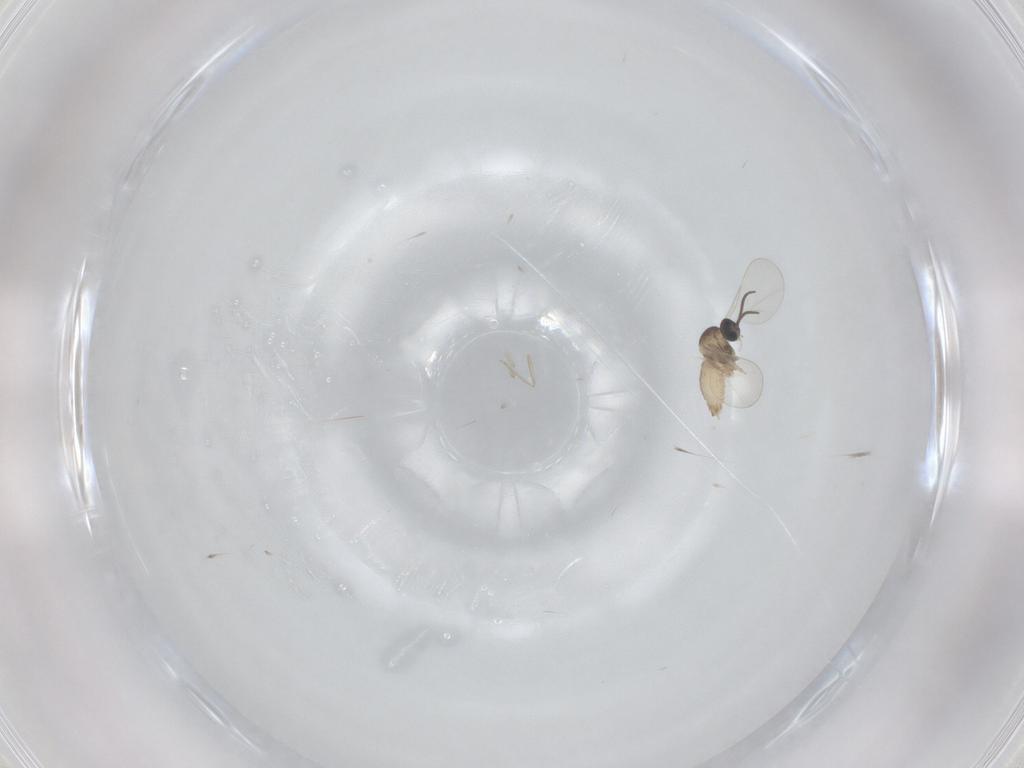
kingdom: Animalia
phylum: Arthropoda
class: Insecta
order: Diptera
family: Cecidomyiidae
